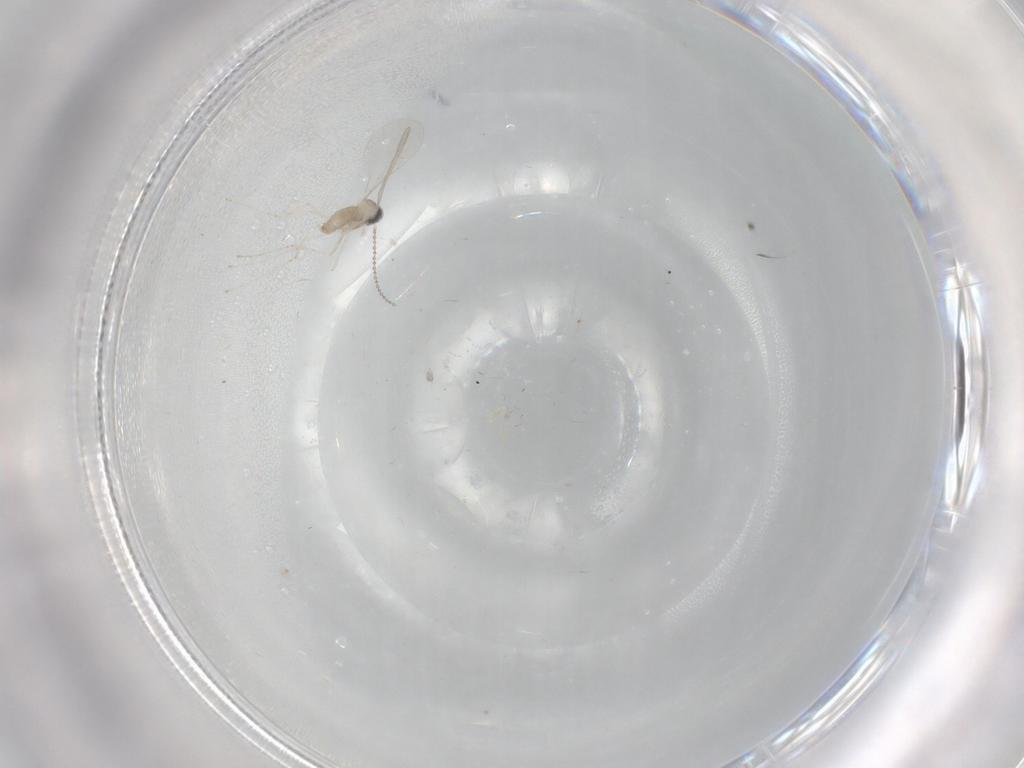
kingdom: Animalia
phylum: Arthropoda
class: Insecta
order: Diptera
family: Cecidomyiidae
